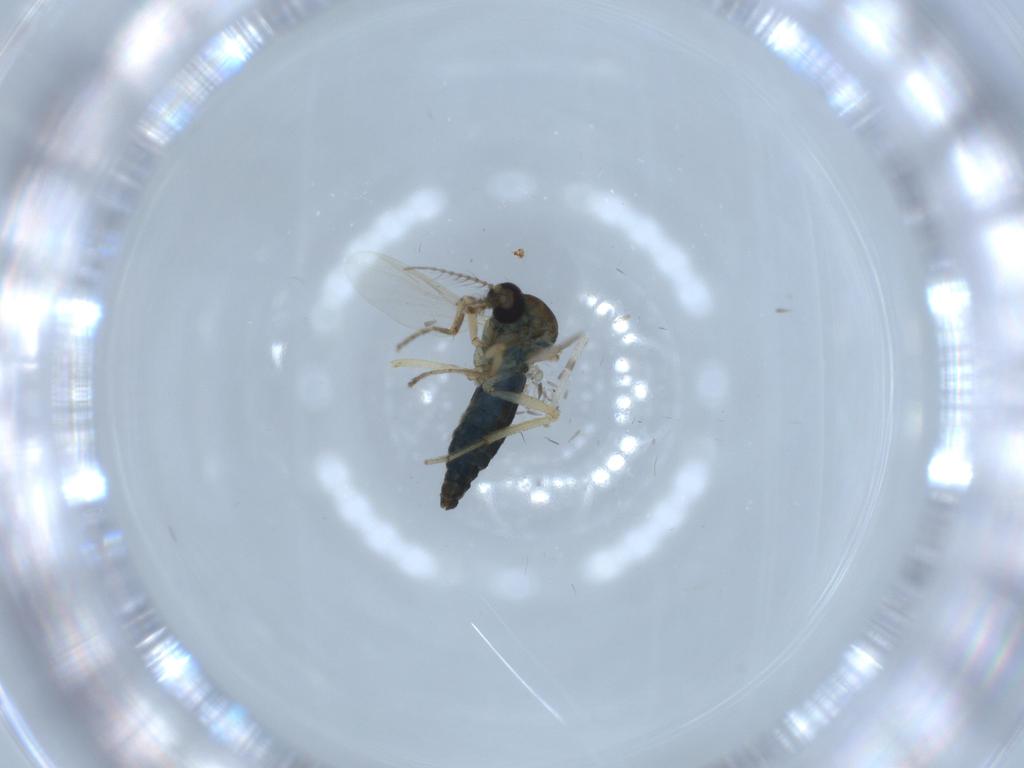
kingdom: Animalia
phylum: Arthropoda
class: Insecta
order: Diptera
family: Ceratopogonidae
